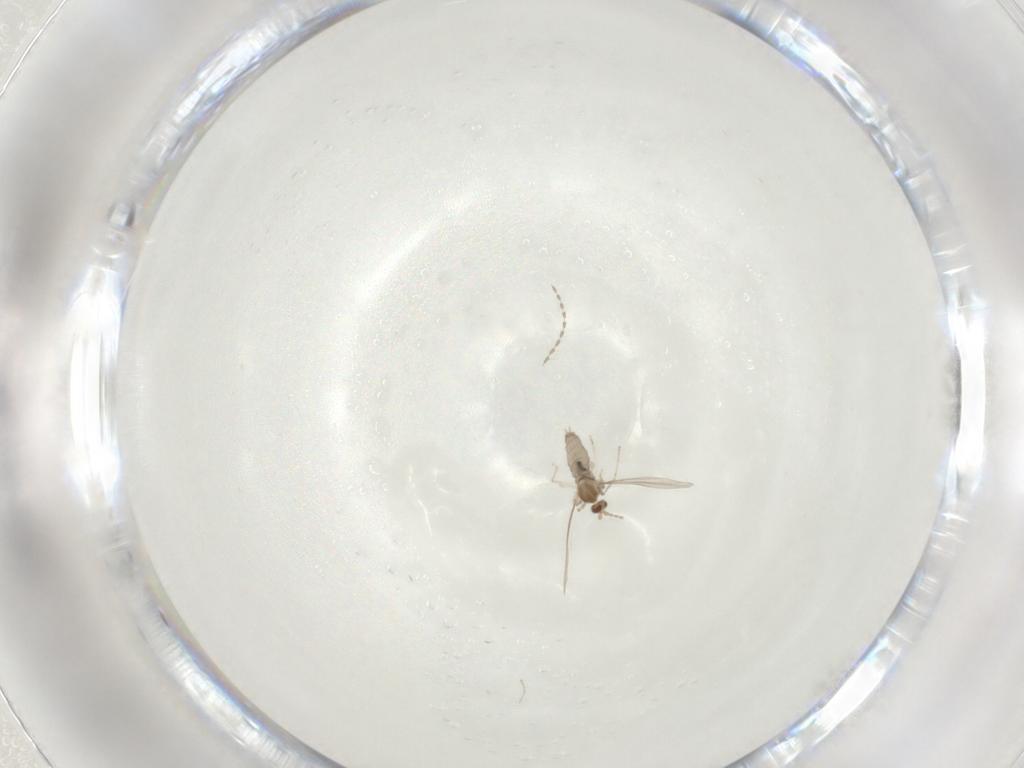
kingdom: Animalia
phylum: Arthropoda
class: Insecta
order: Diptera
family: Cecidomyiidae
